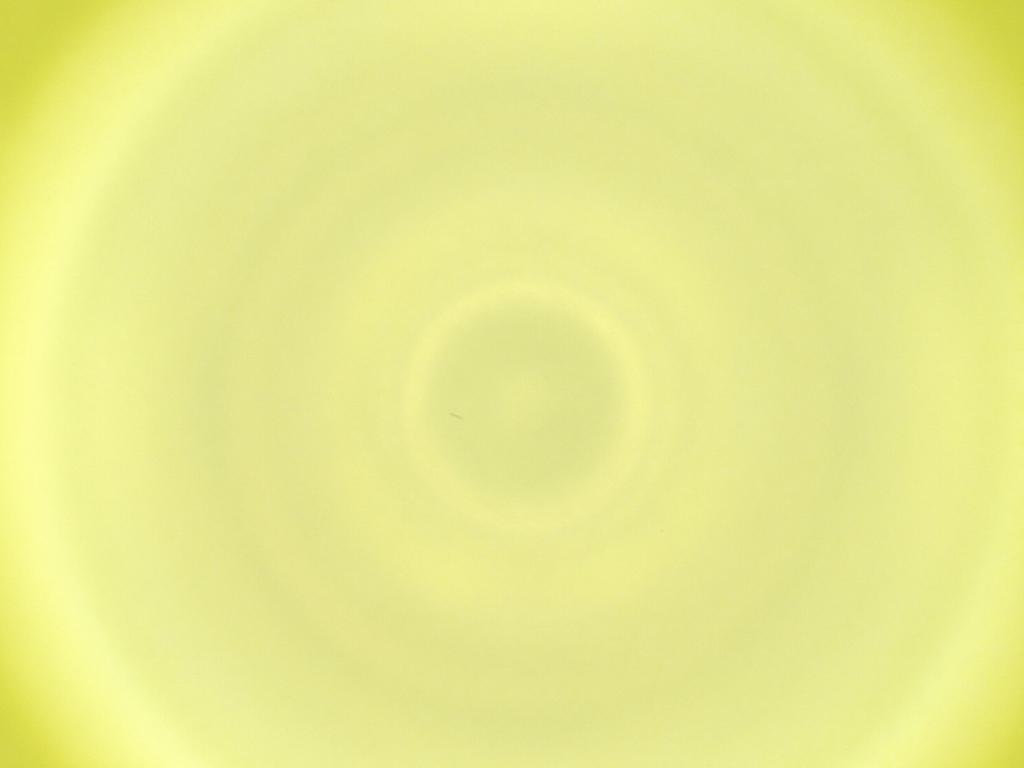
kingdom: Animalia
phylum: Arthropoda
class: Insecta
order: Diptera
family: Cecidomyiidae
